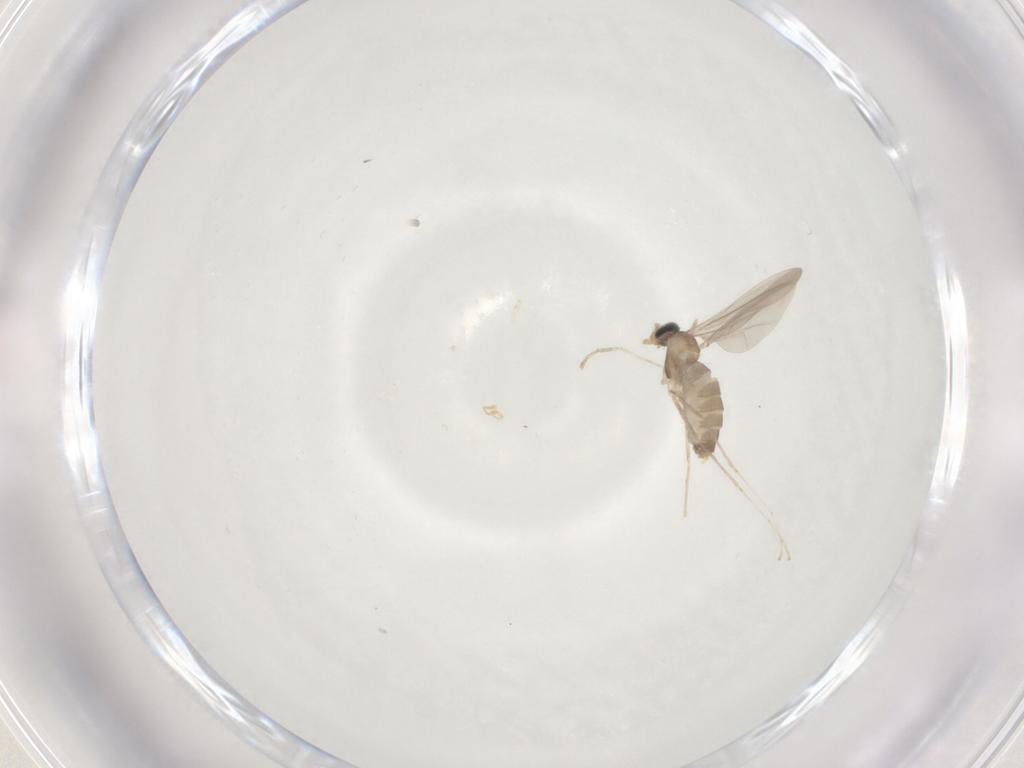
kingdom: Animalia
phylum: Arthropoda
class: Insecta
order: Diptera
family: Cecidomyiidae
